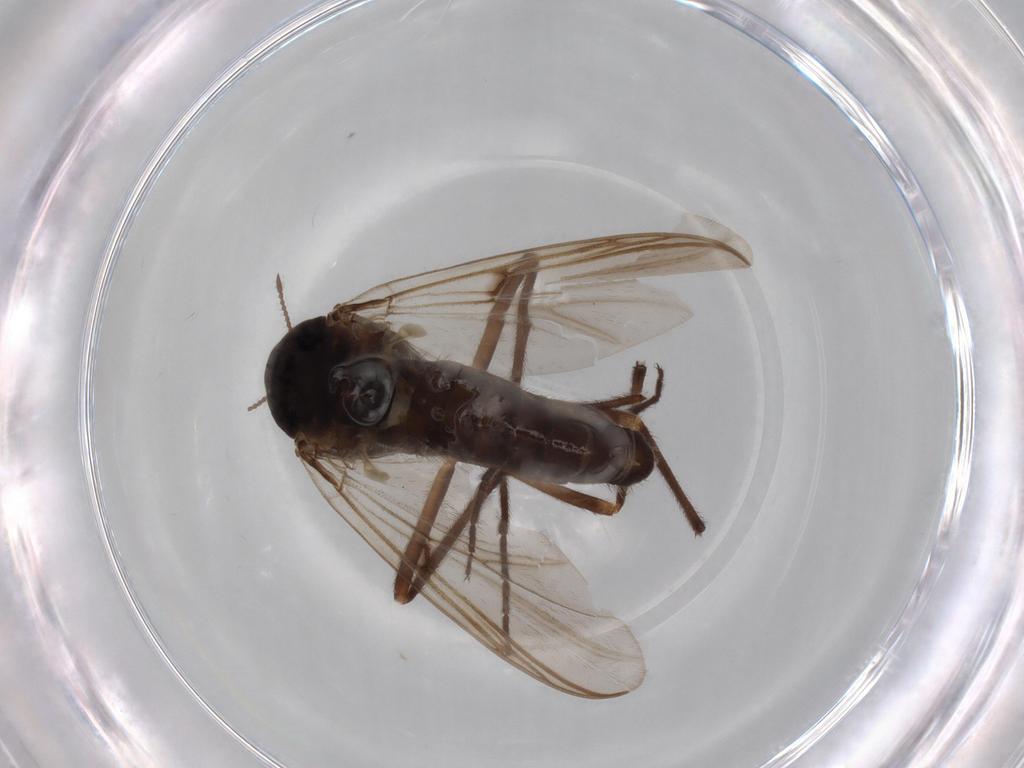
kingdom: Animalia
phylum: Arthropoda
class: Insecta
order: Diptera
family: Chironomidae
